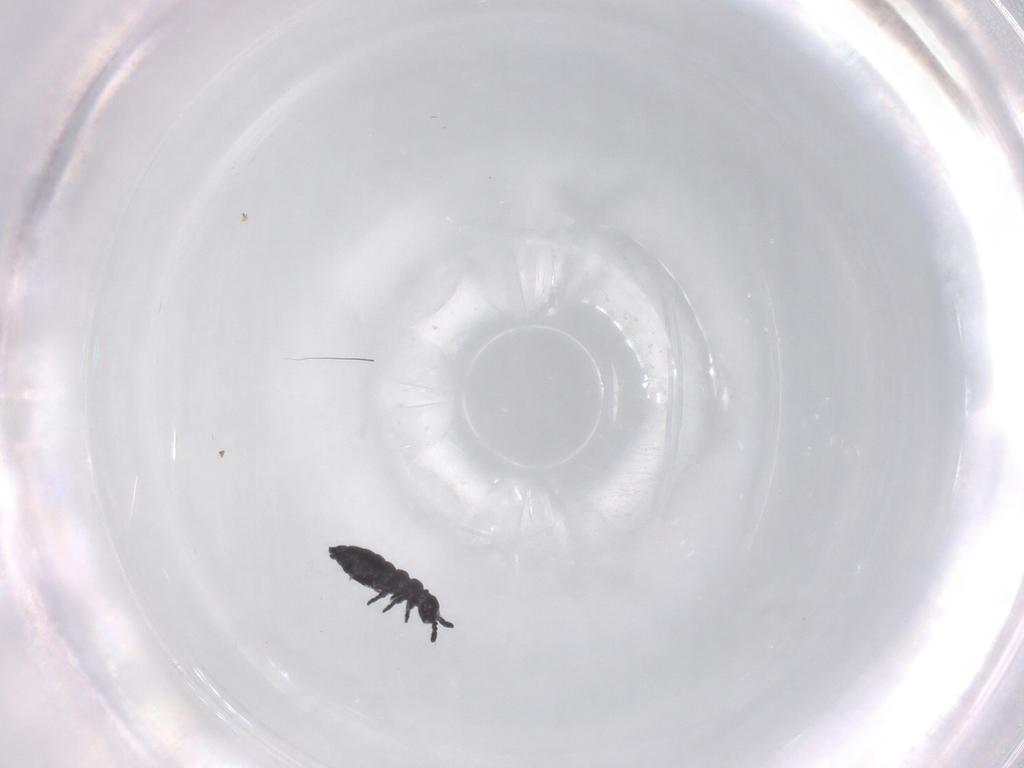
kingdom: Animalia
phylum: Arthropoda
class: Collembola
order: Poduromorpha
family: Hypogastruridae
